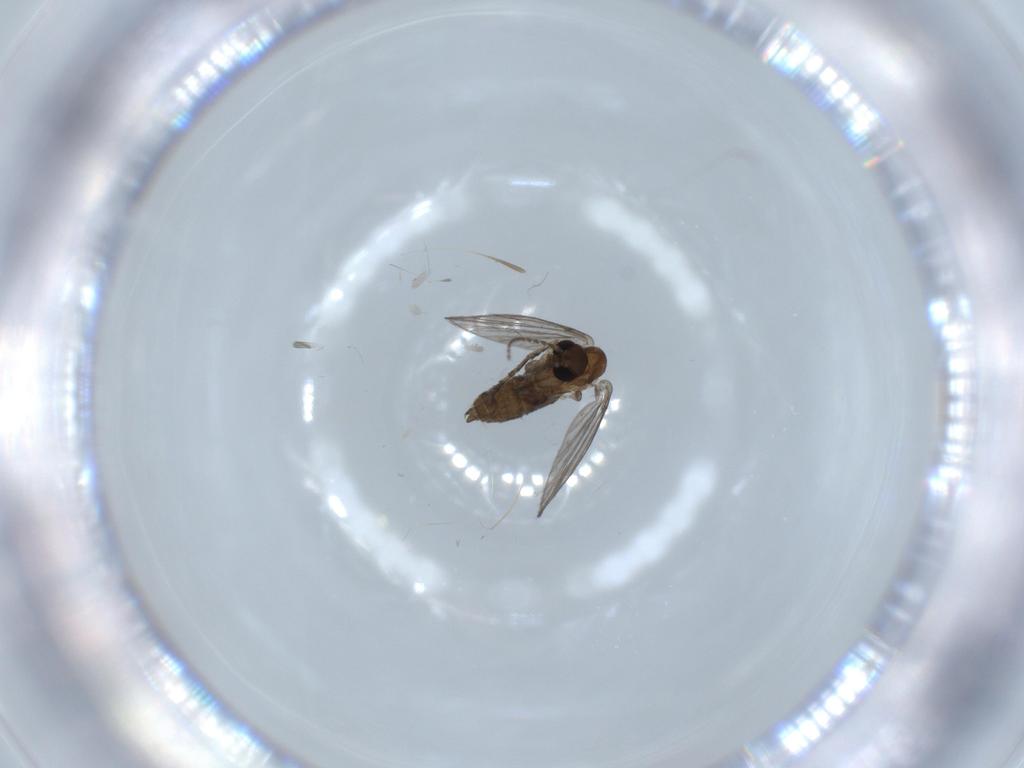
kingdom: Animalia
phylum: Arthropoda
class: Insecta
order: Diptera
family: Psychodidae
